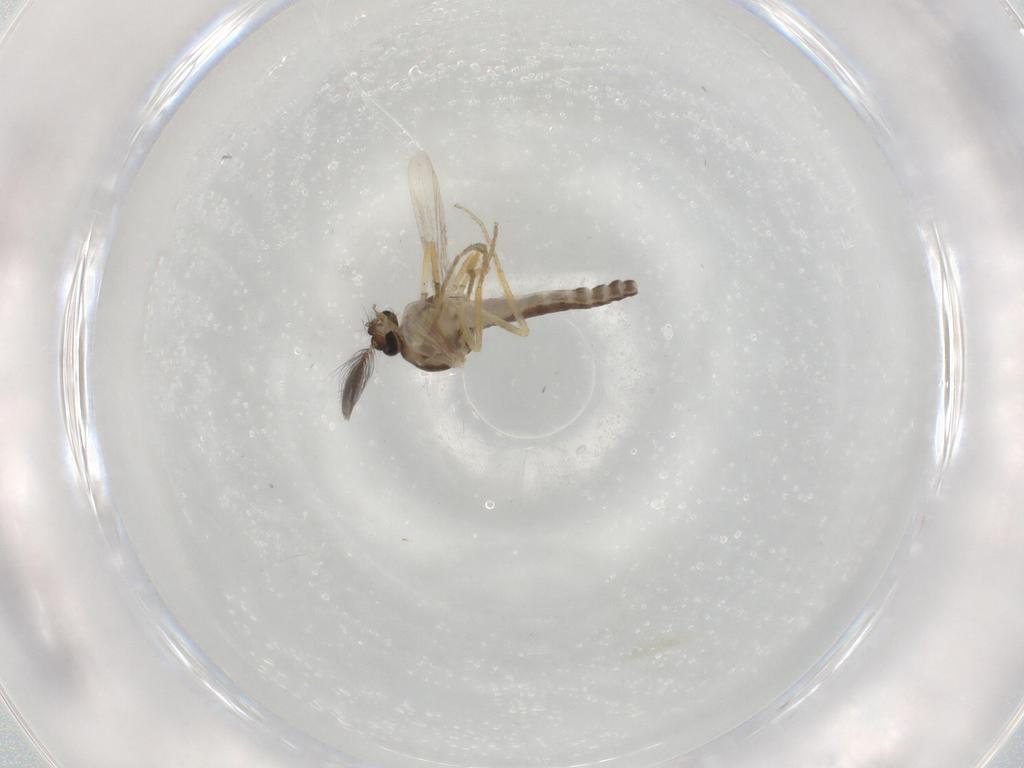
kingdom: Animalia
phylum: Arthropoda
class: Insecta
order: Diptera
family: Ceratopogonidae
